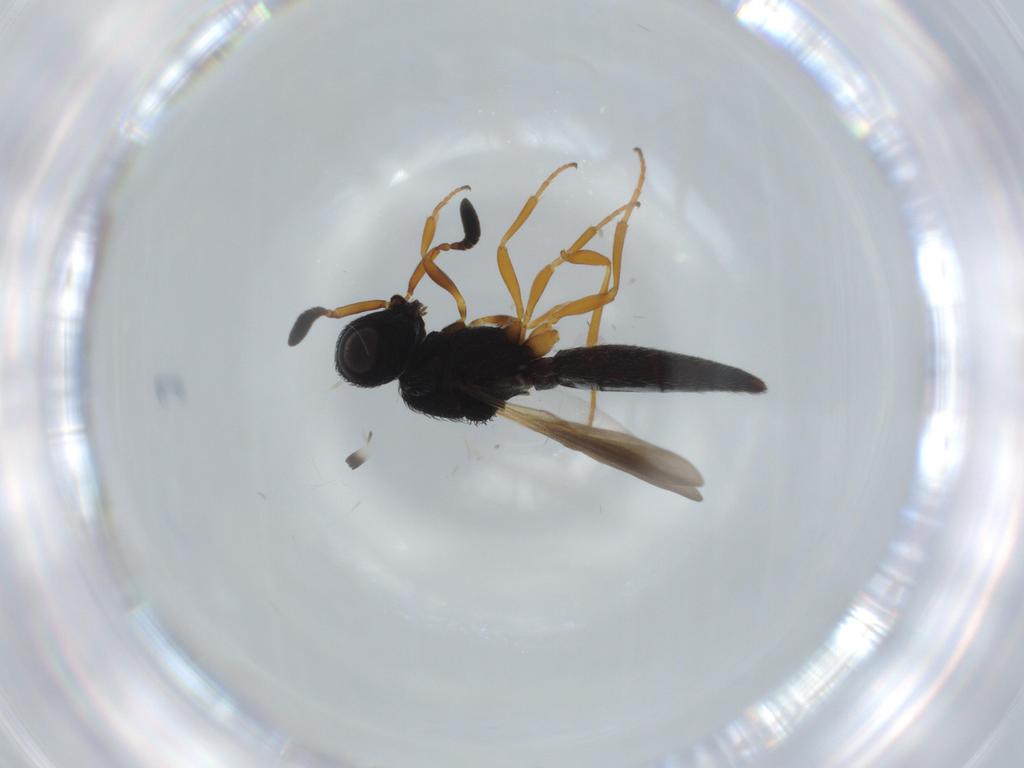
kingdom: Animalia
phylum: Arthropoda
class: Insecta
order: Hymenoptera
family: Scelionidae
